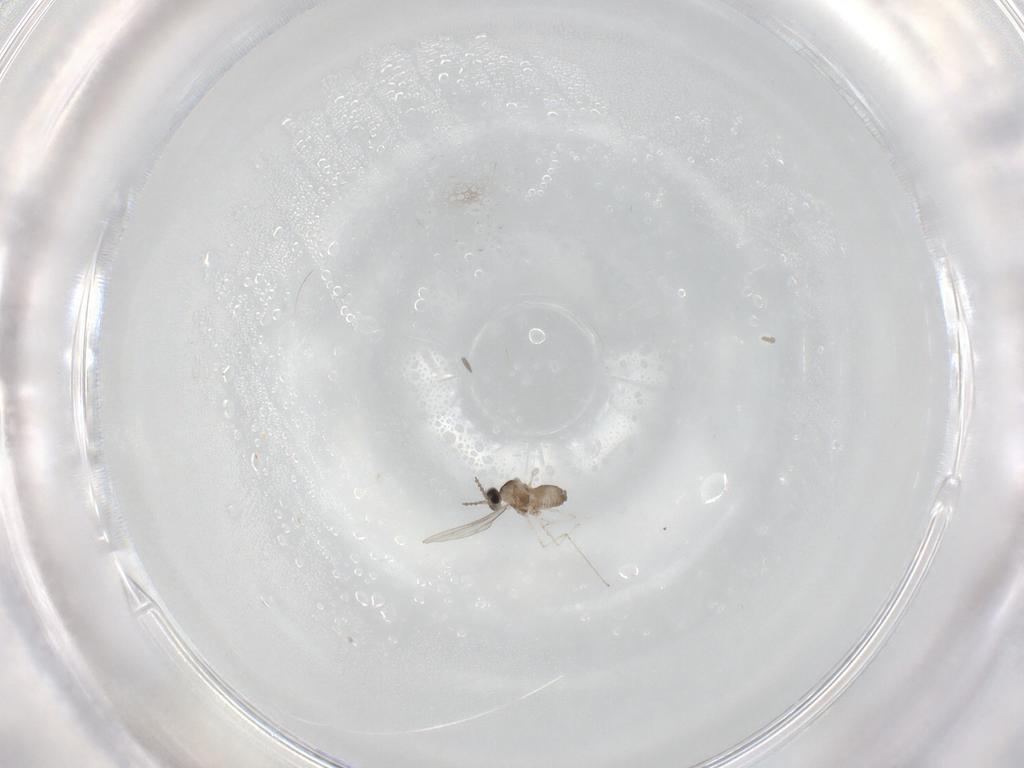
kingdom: Animalia
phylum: Arthropoda
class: Insecta
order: Diptera
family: Cecidomyiidae
